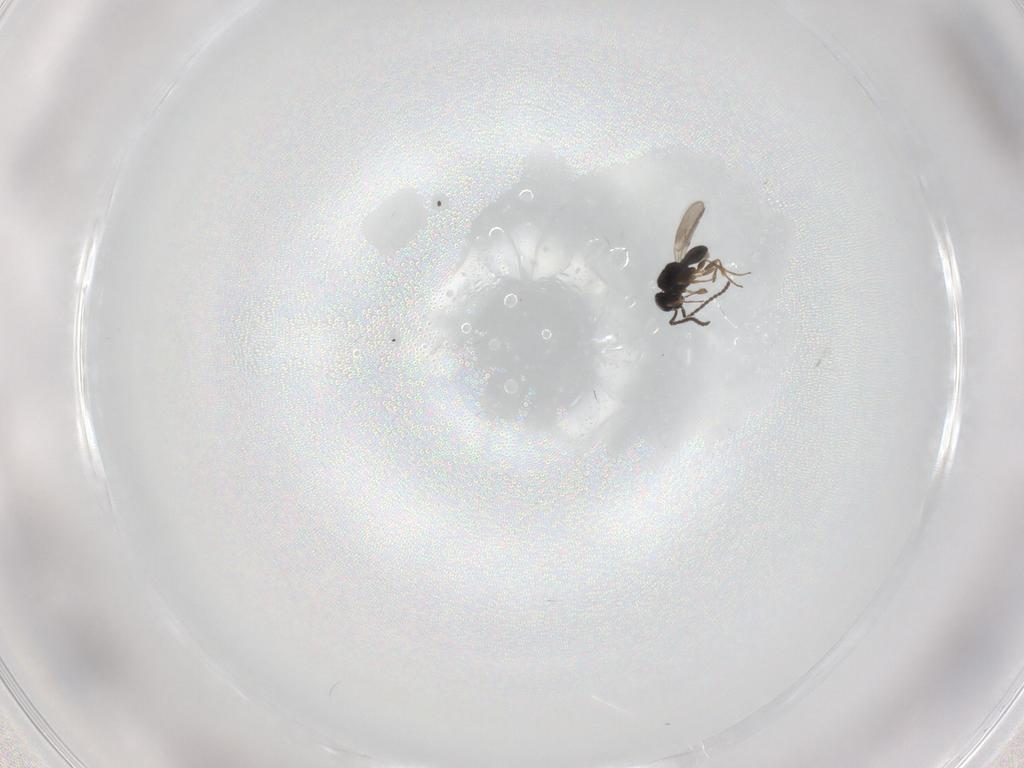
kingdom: Animalia
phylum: Arthropoda
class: Insecta
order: Hymenoptera
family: Scelionidae
